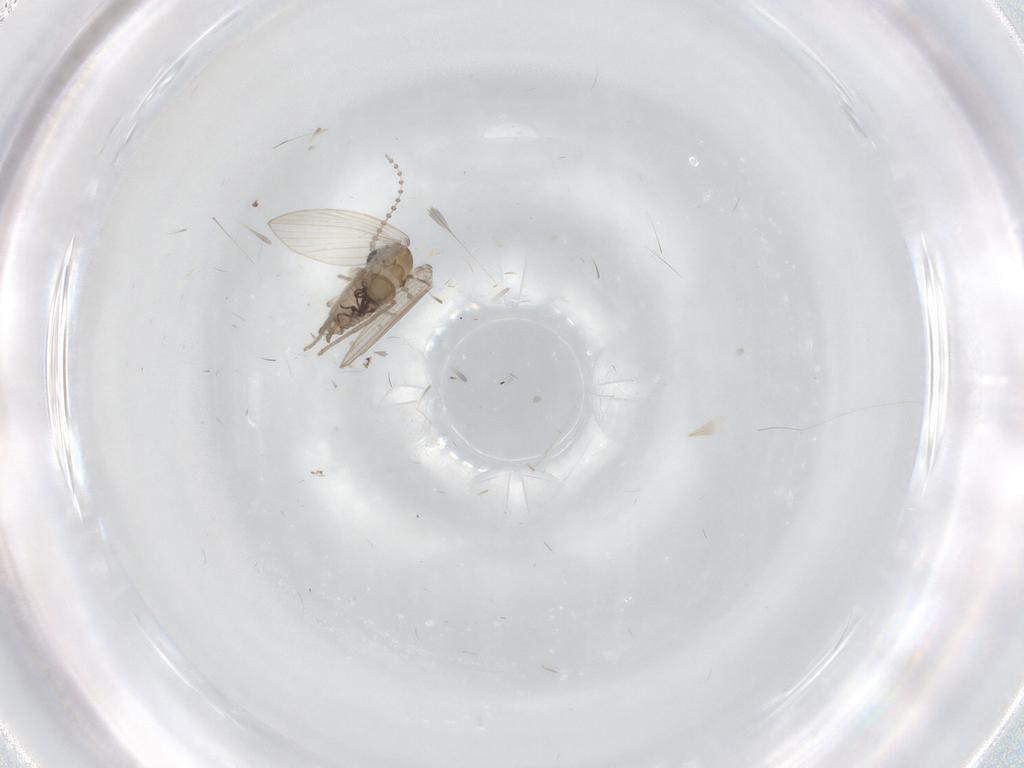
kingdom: Animalia
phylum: Arthropoda
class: Insecta
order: Diptera
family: Psychodidae
